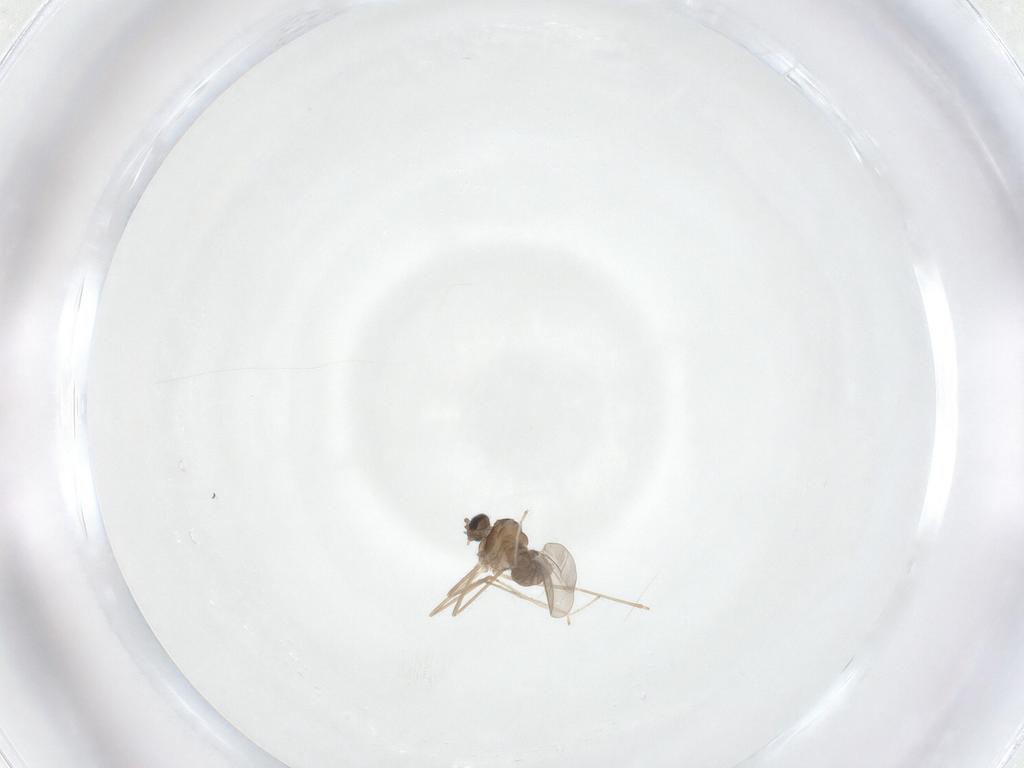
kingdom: Animalia
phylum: Arthropoda
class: Insecta
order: Diptera
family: Cecidomyiidae
